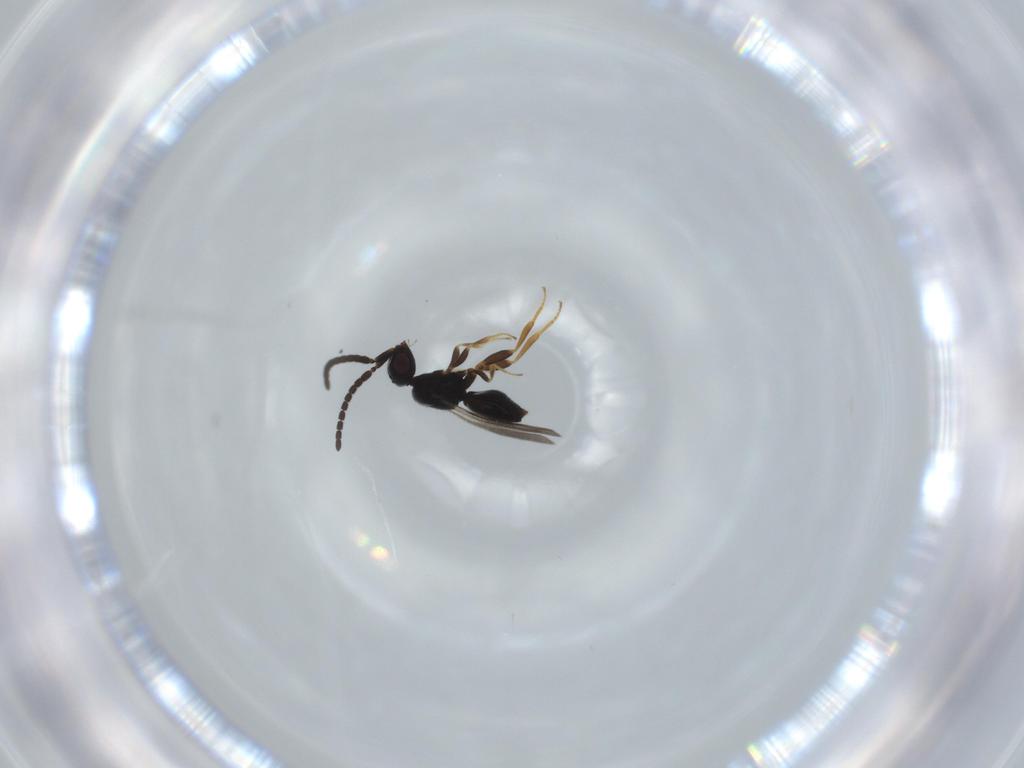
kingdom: Animalia
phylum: Arthropoda
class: Insecta
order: Hymenoptera
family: Ceraphronidae
